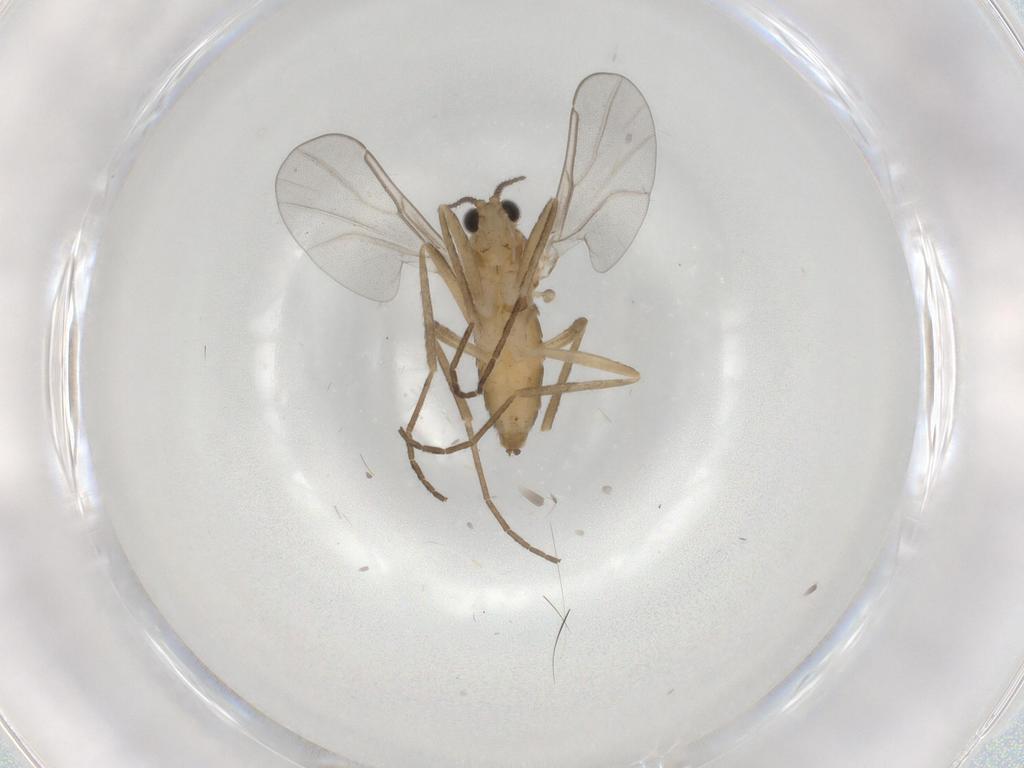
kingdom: Animalia
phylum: Arthropoda
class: Insecta
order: Diptera
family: Cecidomyiidae
